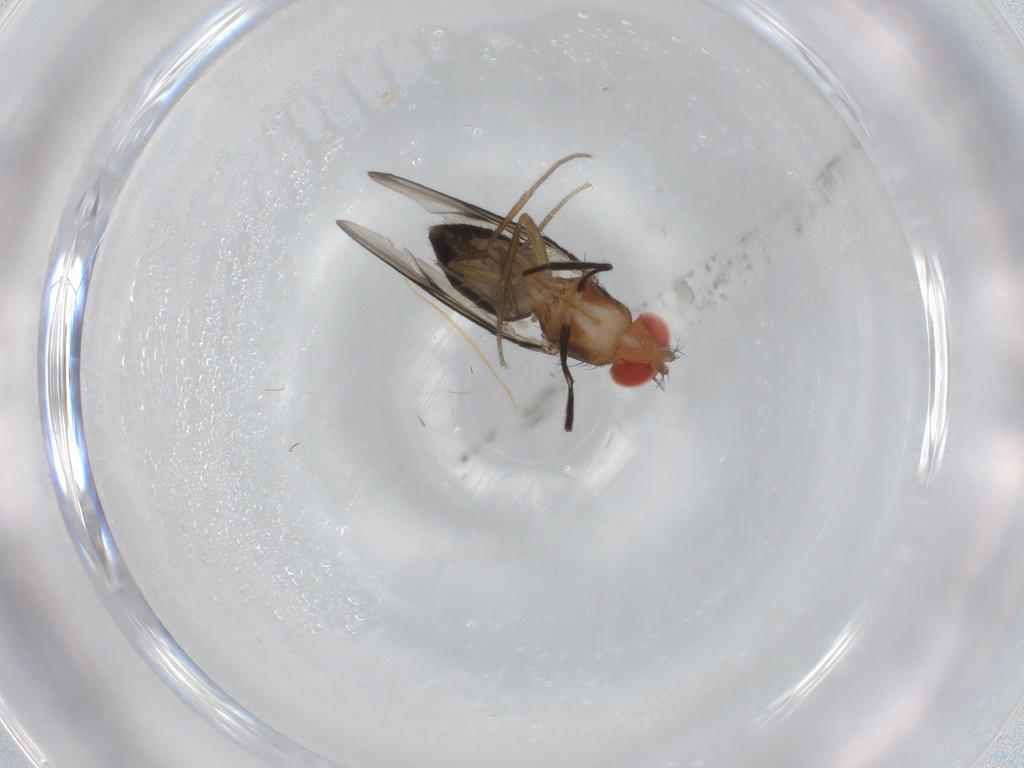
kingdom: Animalia
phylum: Arthropoda
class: Insecta
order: Diptera
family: Drosophilidae
